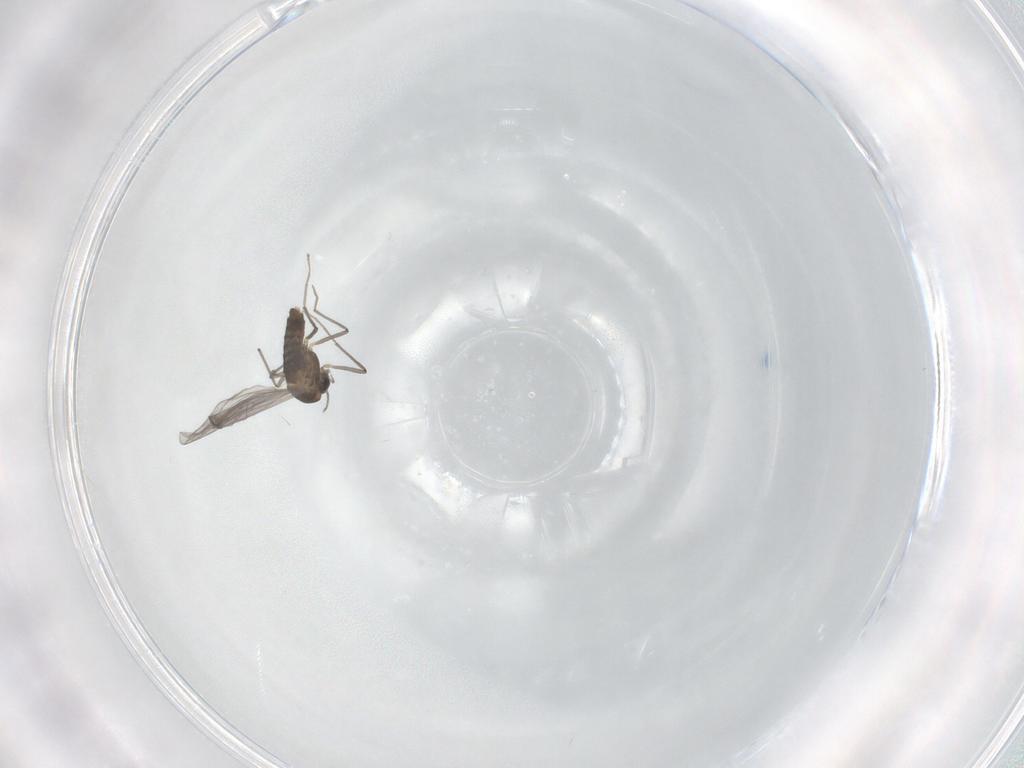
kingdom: Animalia
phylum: Arthropoda
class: Insecta
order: Diptera
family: Chironomidae
